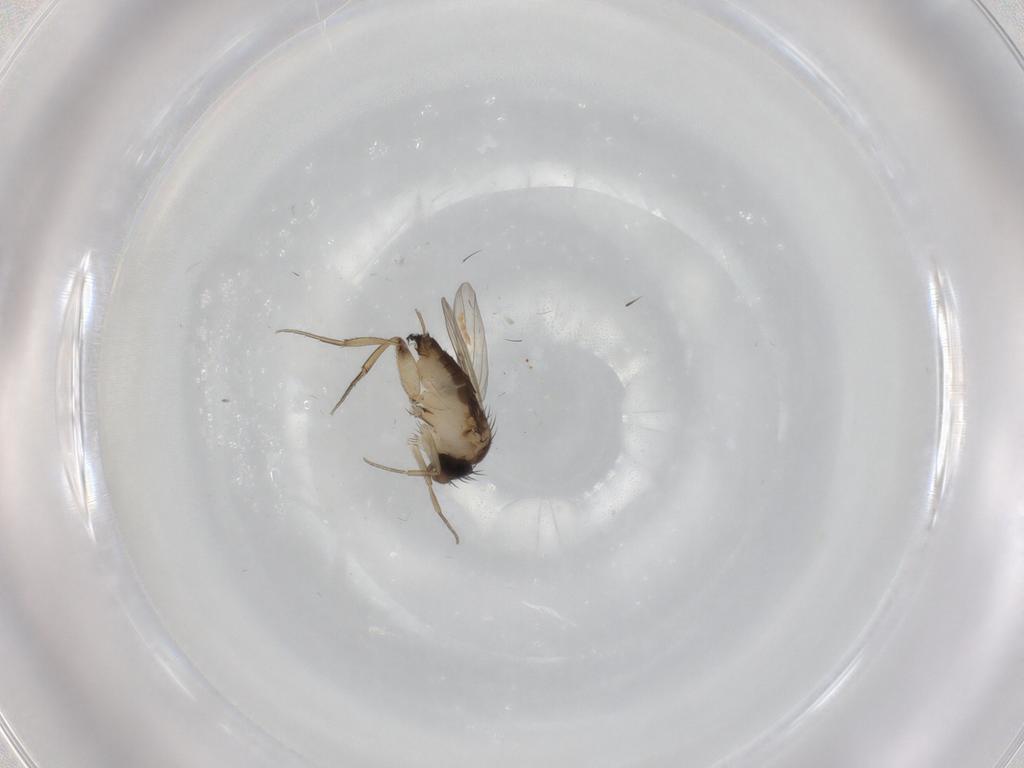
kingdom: Animalia
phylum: Arthropoda
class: Insecta
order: Diptera
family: Phoridae
